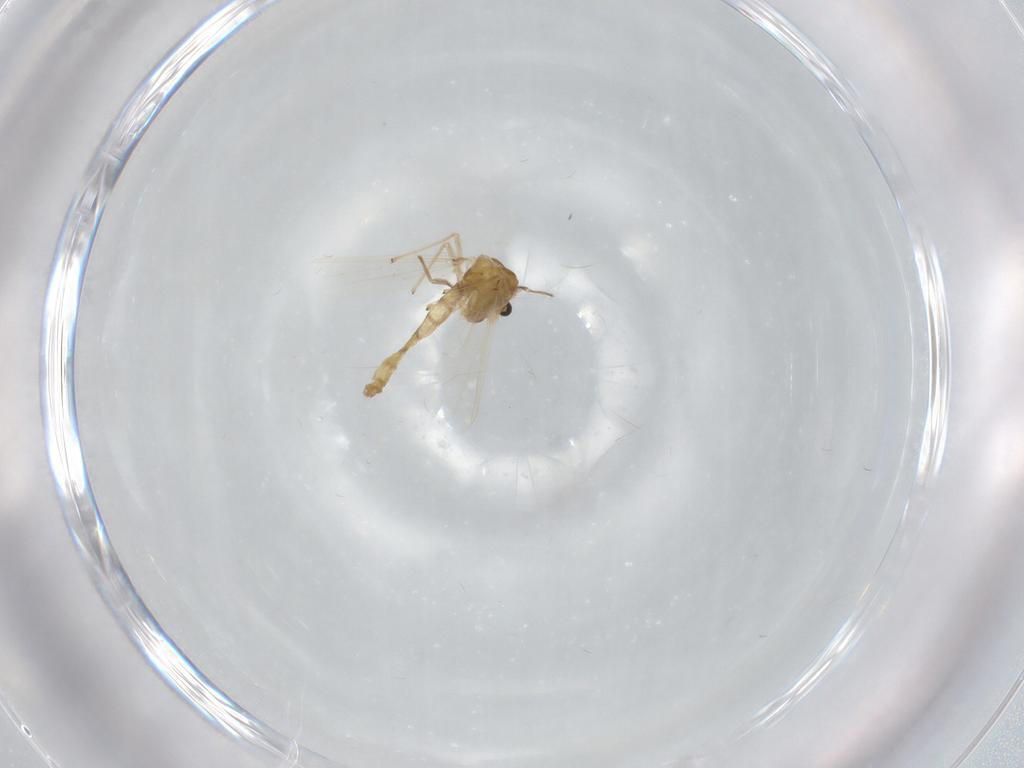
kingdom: Animalia
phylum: Arthropoda
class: Insecta
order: Diptera
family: Chironomidae
